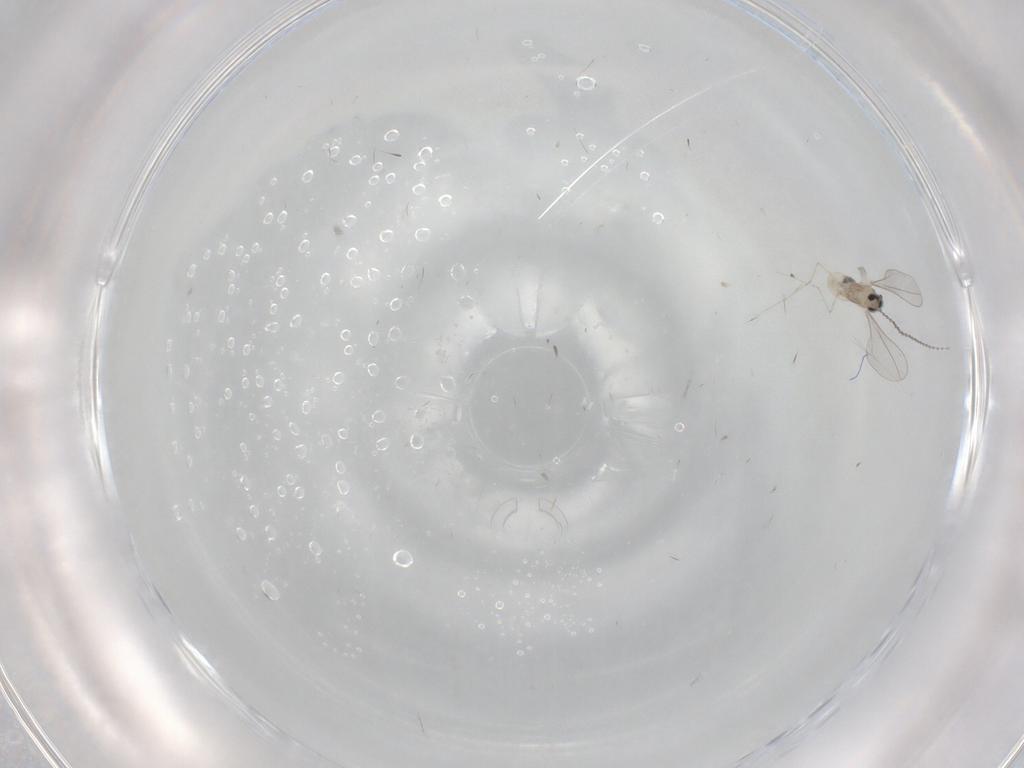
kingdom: Animalia
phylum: Arthropoda
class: Insecta
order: Diptera
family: Cecidomyiidae
